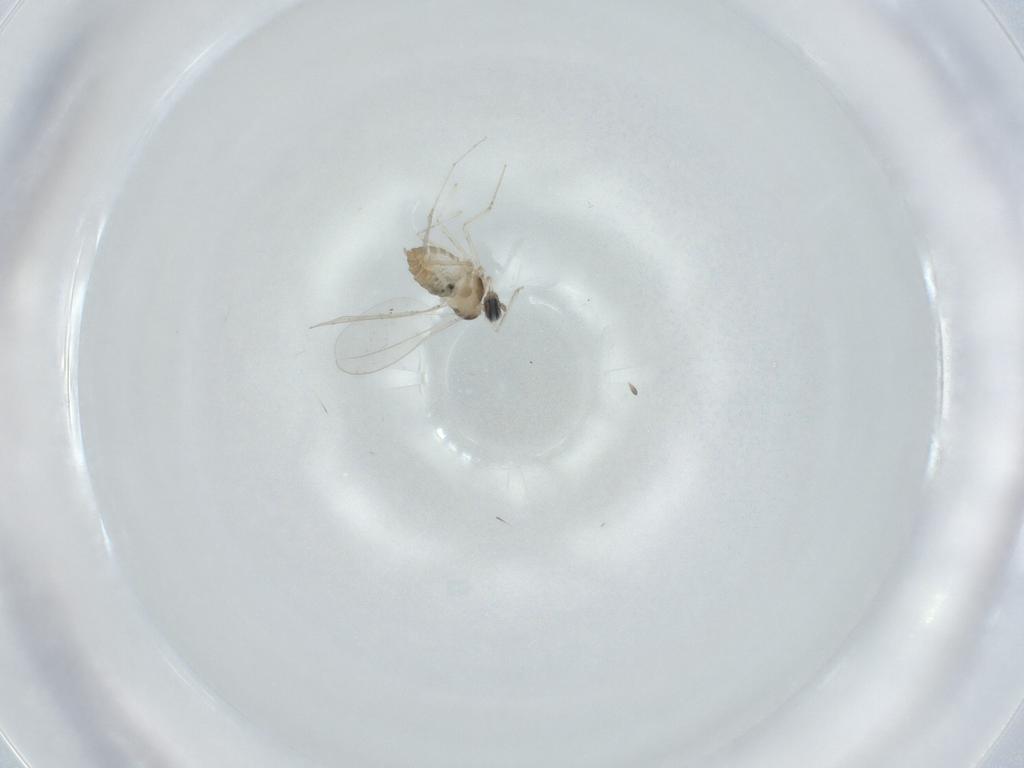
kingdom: Animalia
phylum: Arthropoda
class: Insecta
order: Diptera
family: Cecidomyiidae
